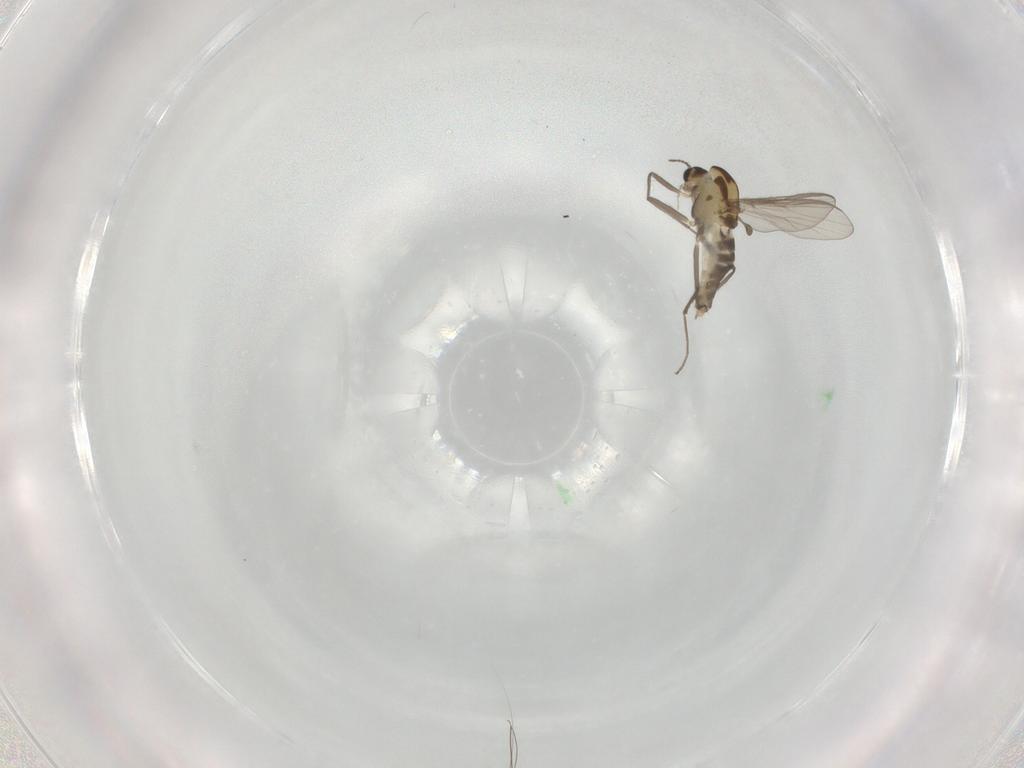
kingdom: Animalia
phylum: Arthropoda
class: Insecta
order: Diptera
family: Chironomidae
